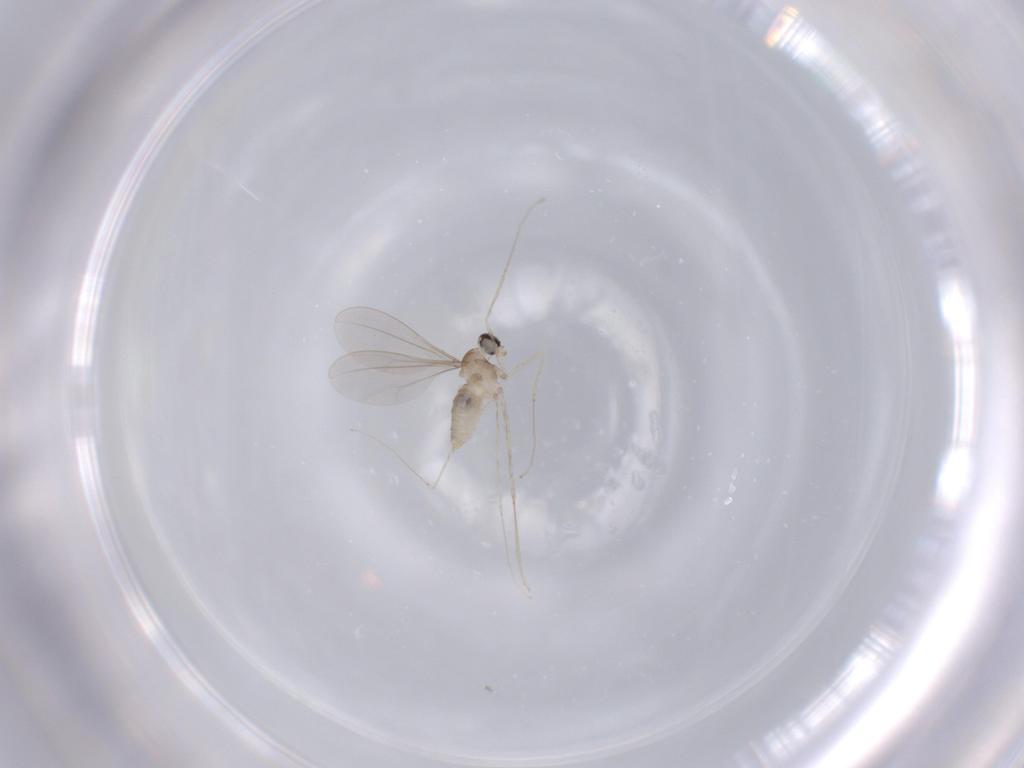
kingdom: Animalia
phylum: Arthropoda
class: Insecta
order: Diptera
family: Cecidomyiidae
